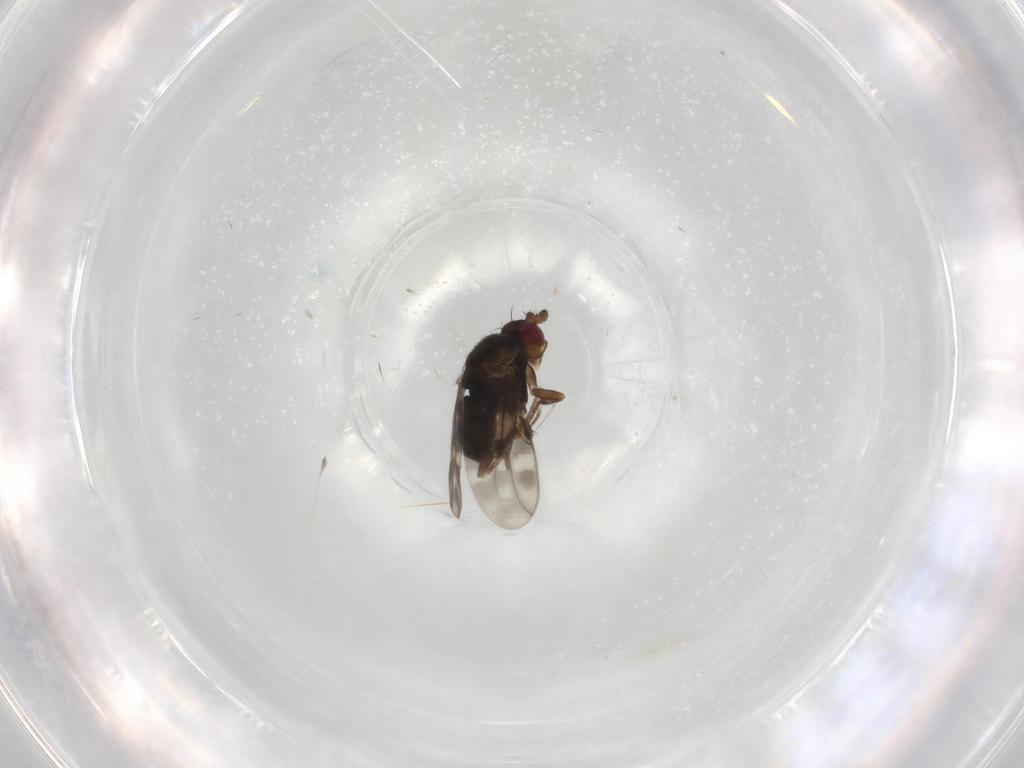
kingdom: Animalia
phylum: Arthropoda
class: Insecta
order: Diptera
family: Sphaeroceridae
